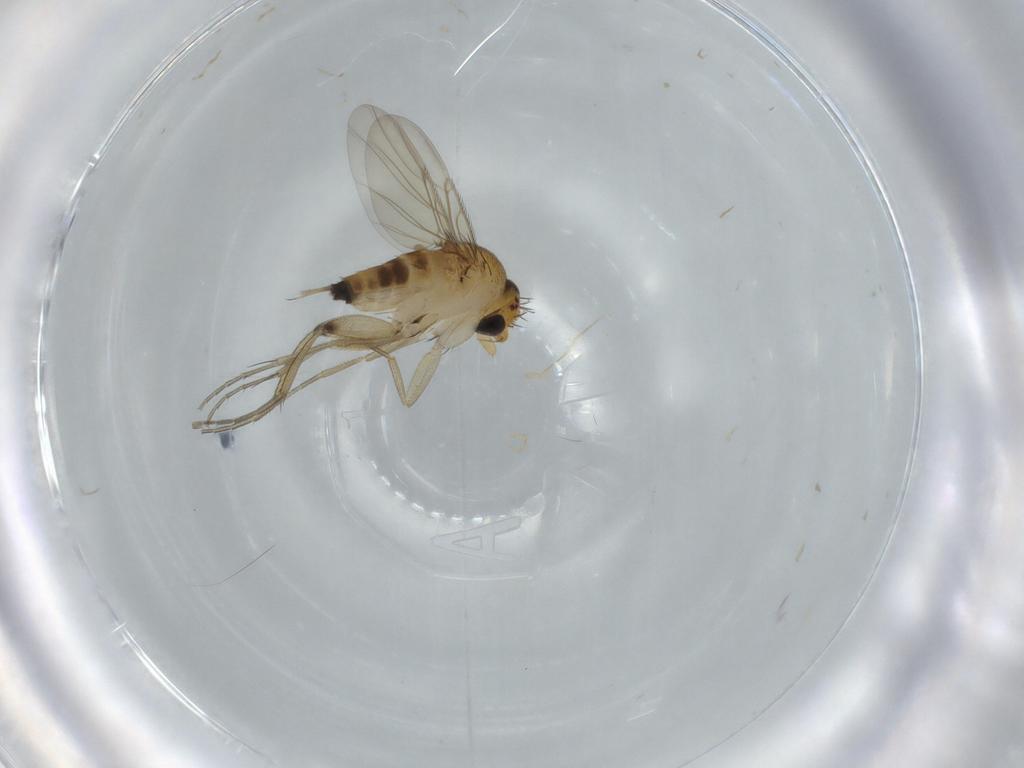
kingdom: Animalia
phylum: Arthropoda
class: Insecta
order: Diptera
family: Phoridae
